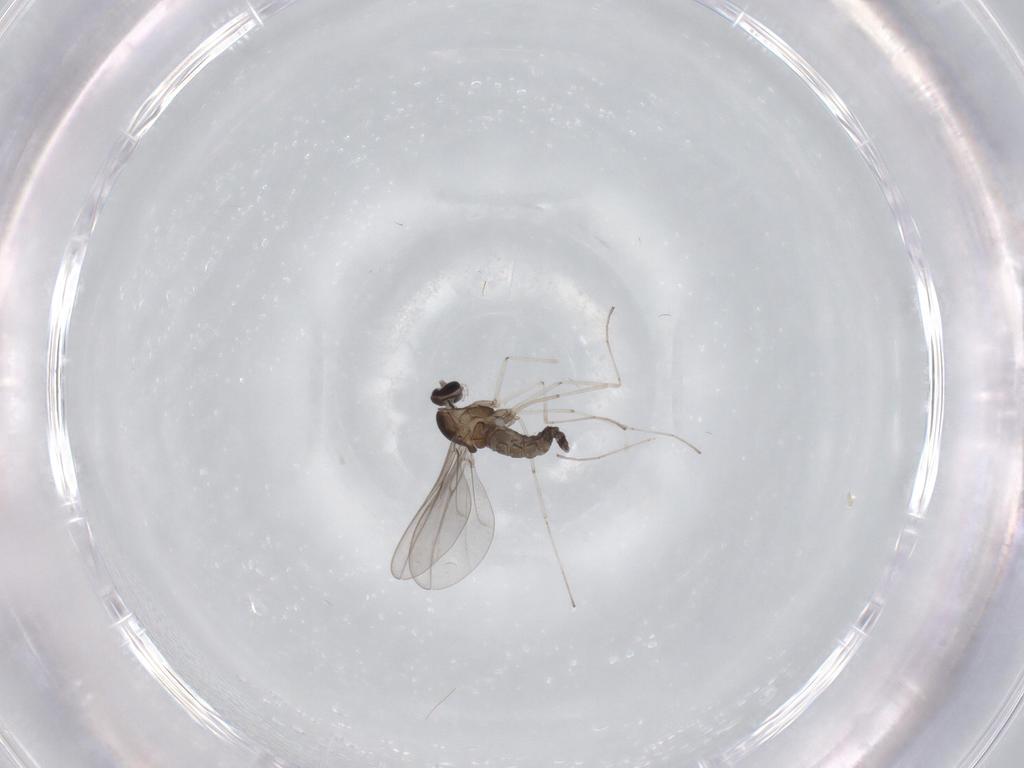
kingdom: Animalia
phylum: Arthropoda
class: Insecta
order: Diptera
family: Cecidomyiidae
